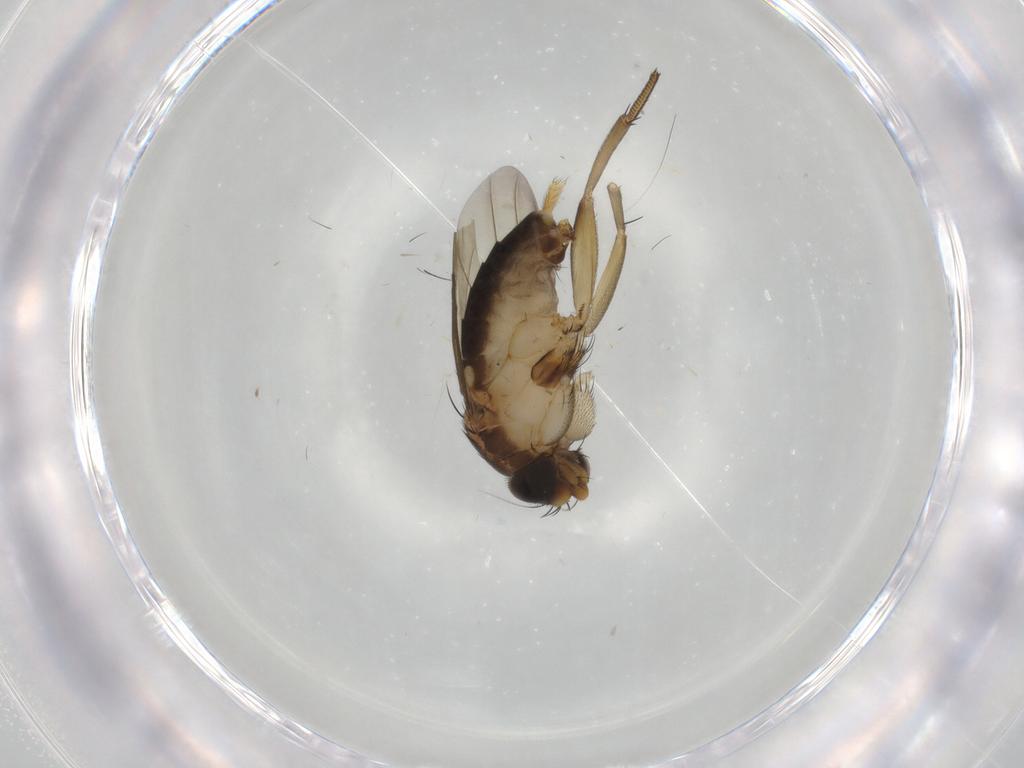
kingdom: Animalia
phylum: Arthropoda
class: Insecta
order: Diptera
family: Phoridae
